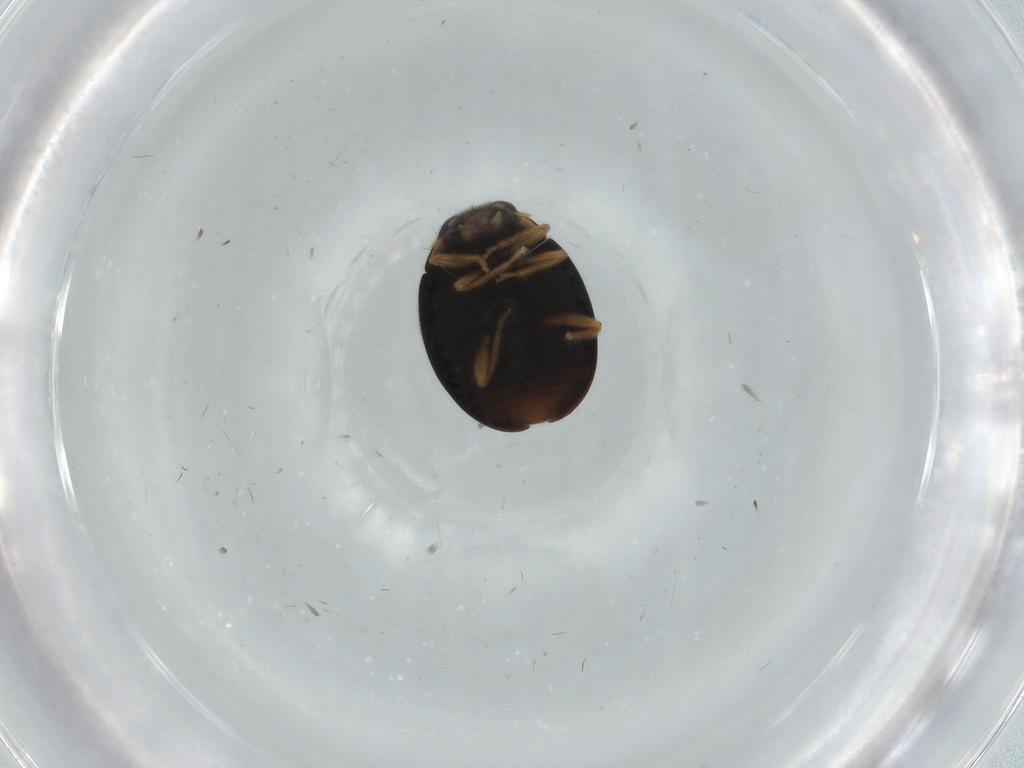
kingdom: Animalia
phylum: Arthropoda
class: Insecta
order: Coleoptera
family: Coccinellidae
